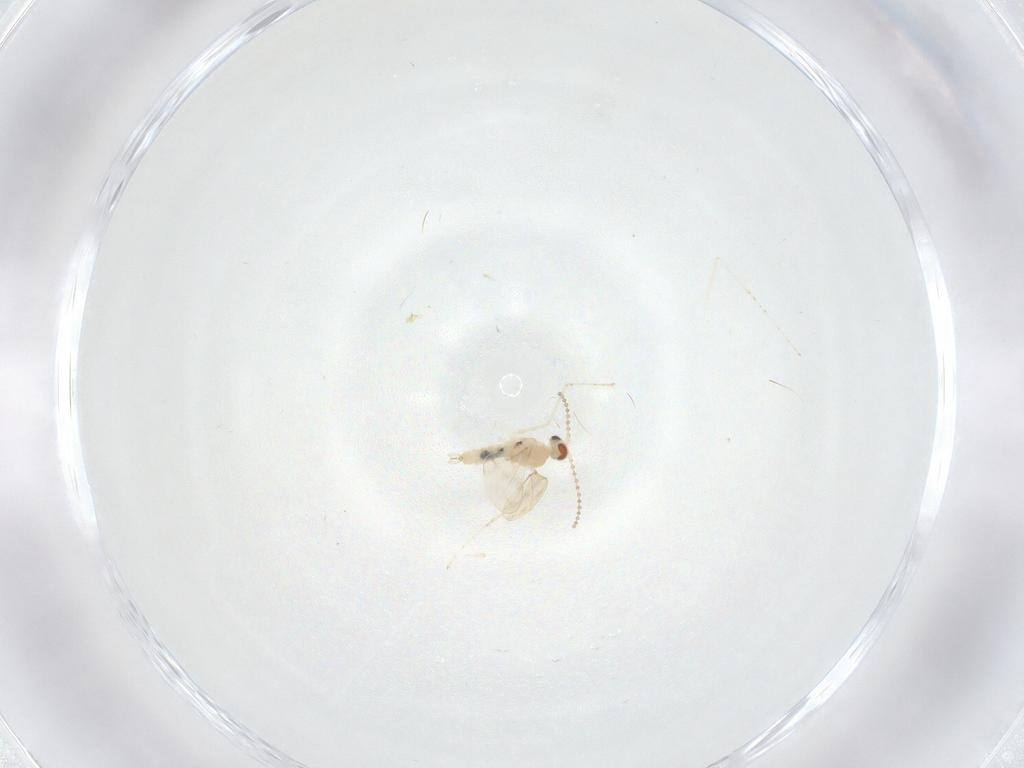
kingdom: Animalia
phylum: Arthropoda
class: Insecta
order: Diptera
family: Cecidomyiidae
